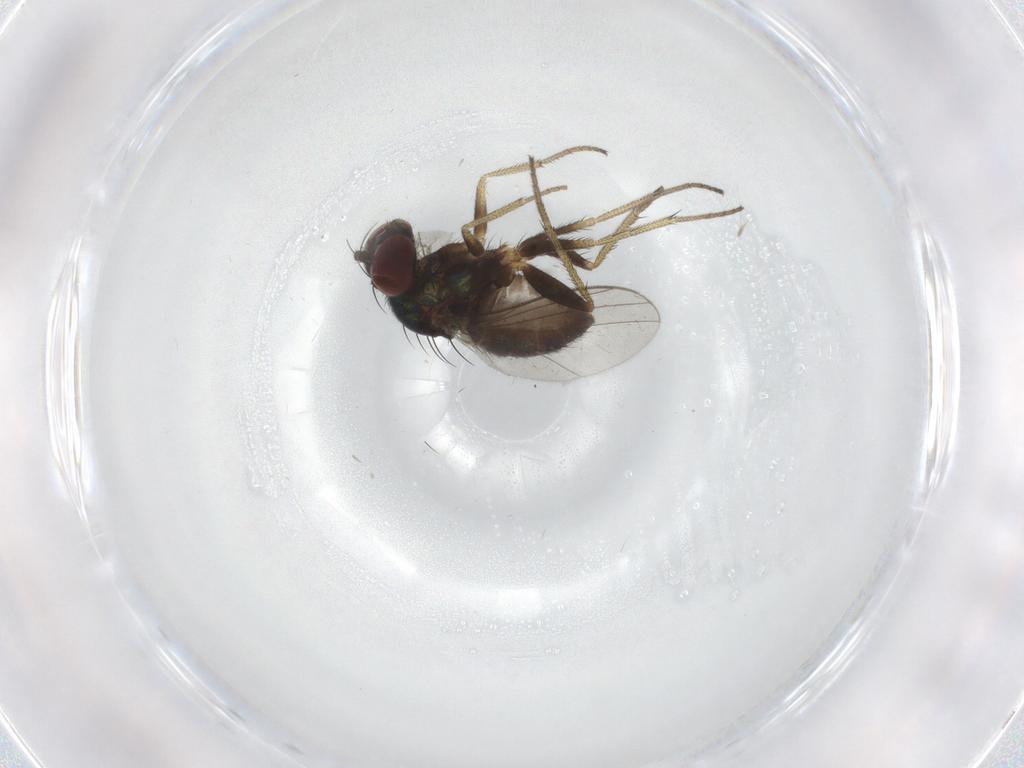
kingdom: Animalia
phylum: Arthropoda
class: Insecta
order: Diptera
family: Dolichopodidae
